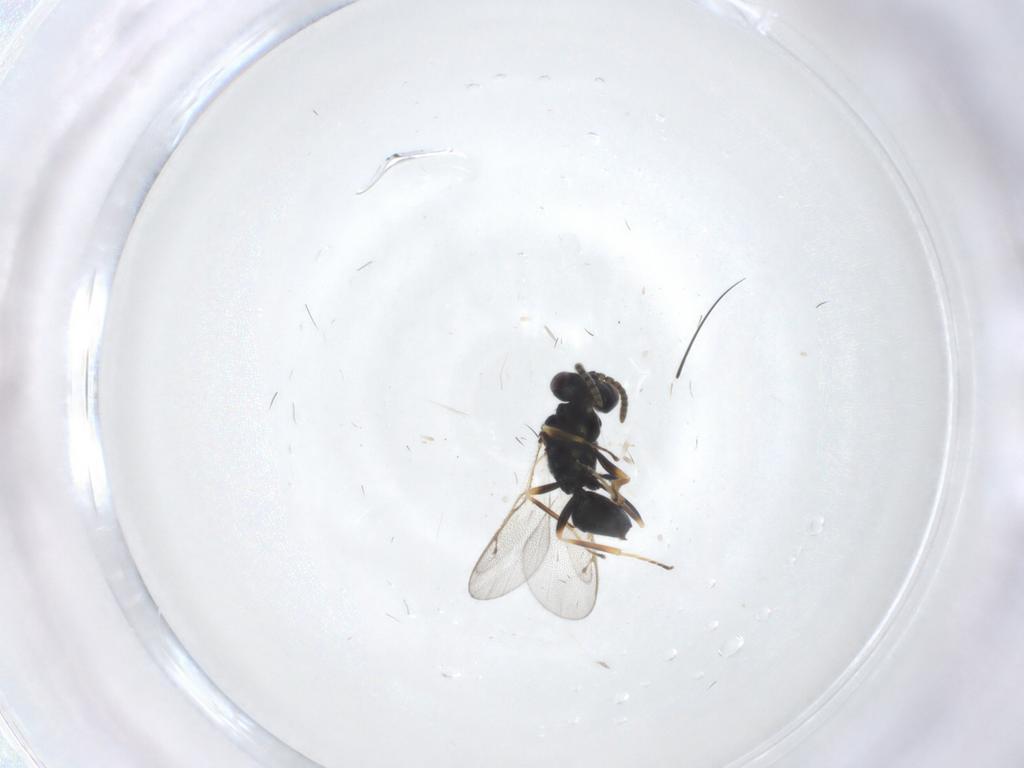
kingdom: Animalia
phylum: Arthropoda
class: Insecta
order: Hymenoptera
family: Pteromalidae
